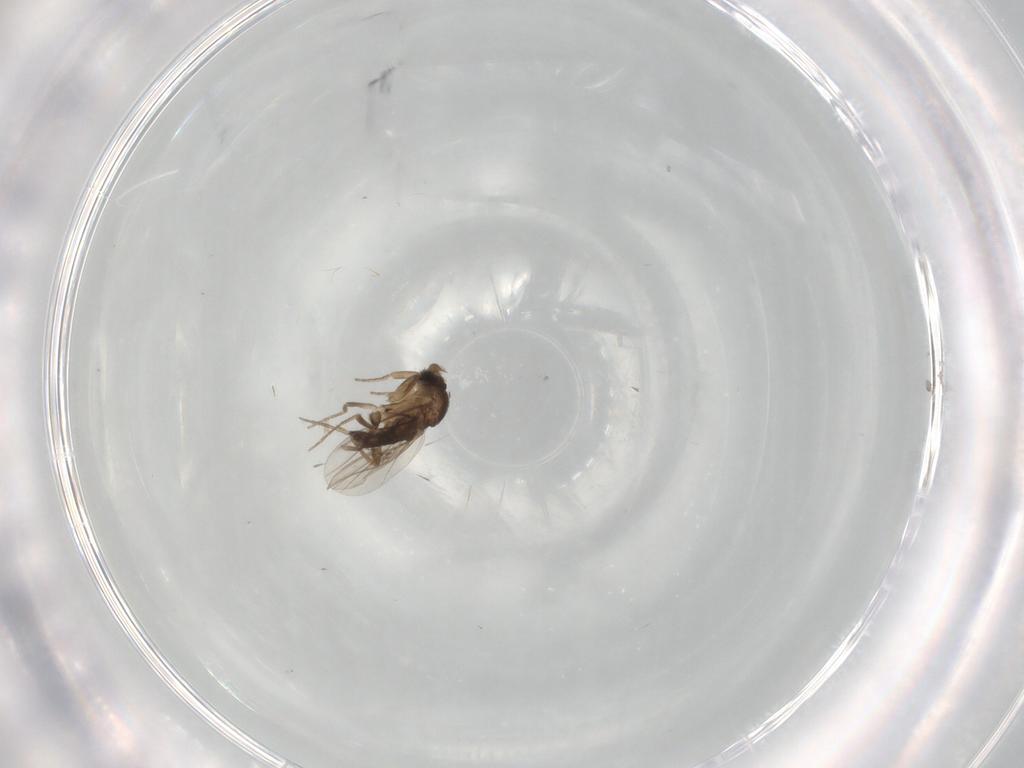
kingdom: Animalia
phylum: Arthropoda
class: Insecta
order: Diptera
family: Phoridae
